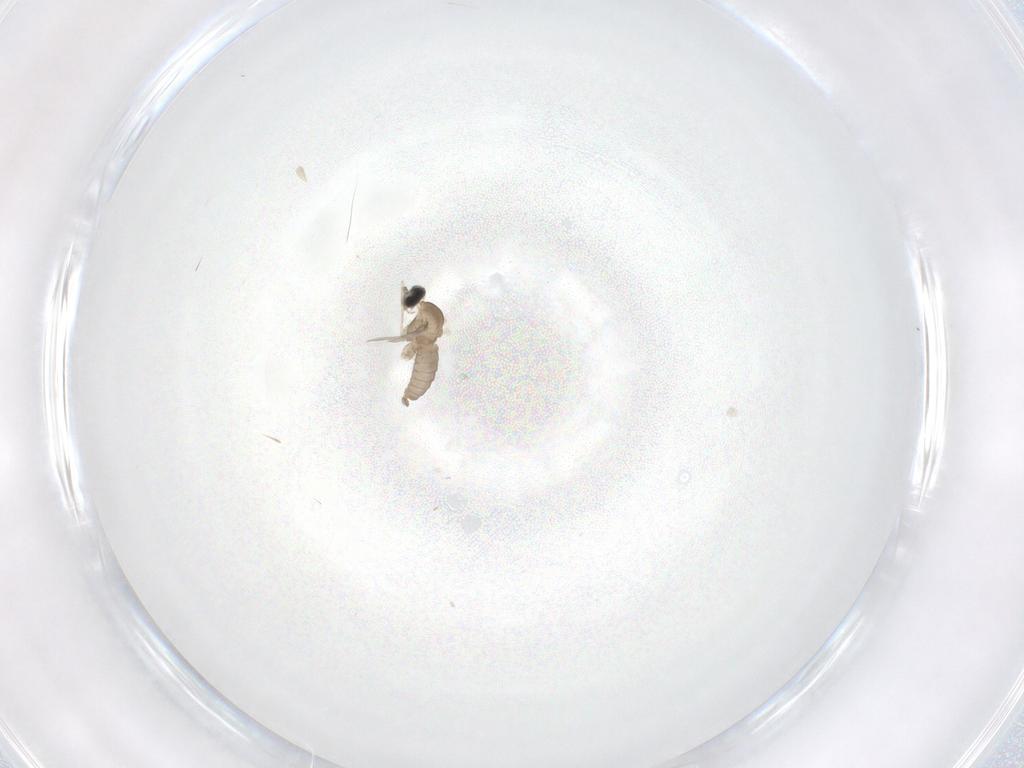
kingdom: Animalia
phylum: Arthropoda
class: Insecta
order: Diptera
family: Cecidomyiidae
